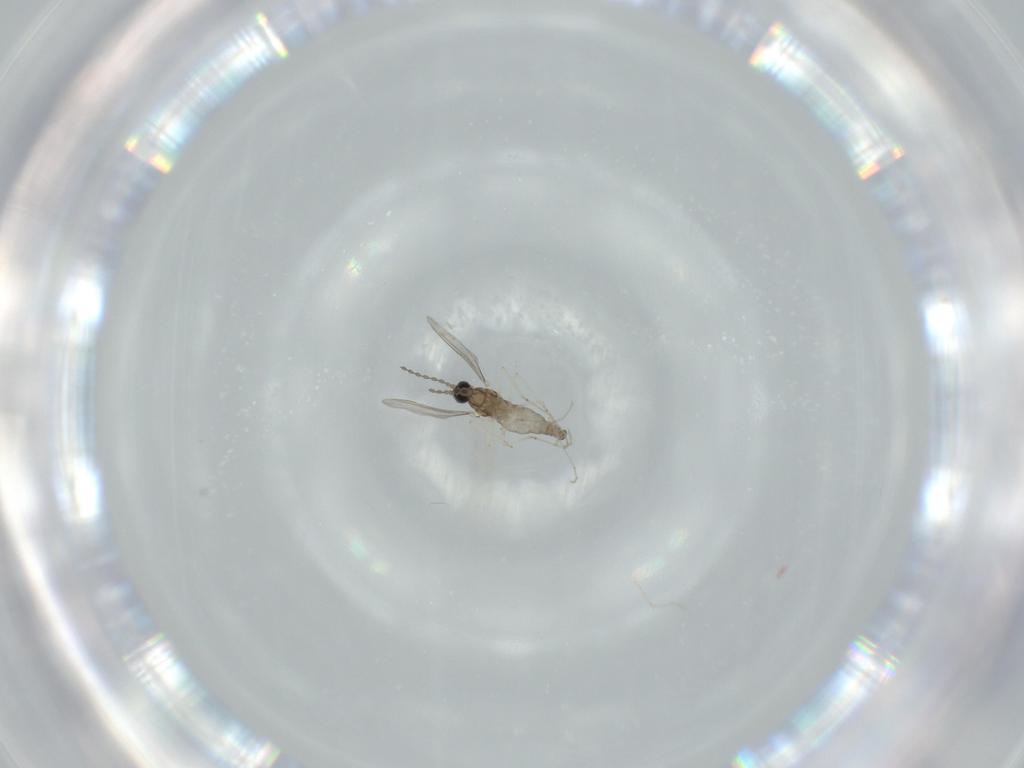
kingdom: Animalia
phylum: Arthropoda
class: Insecta
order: Diptera
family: Cecidomyiidae
